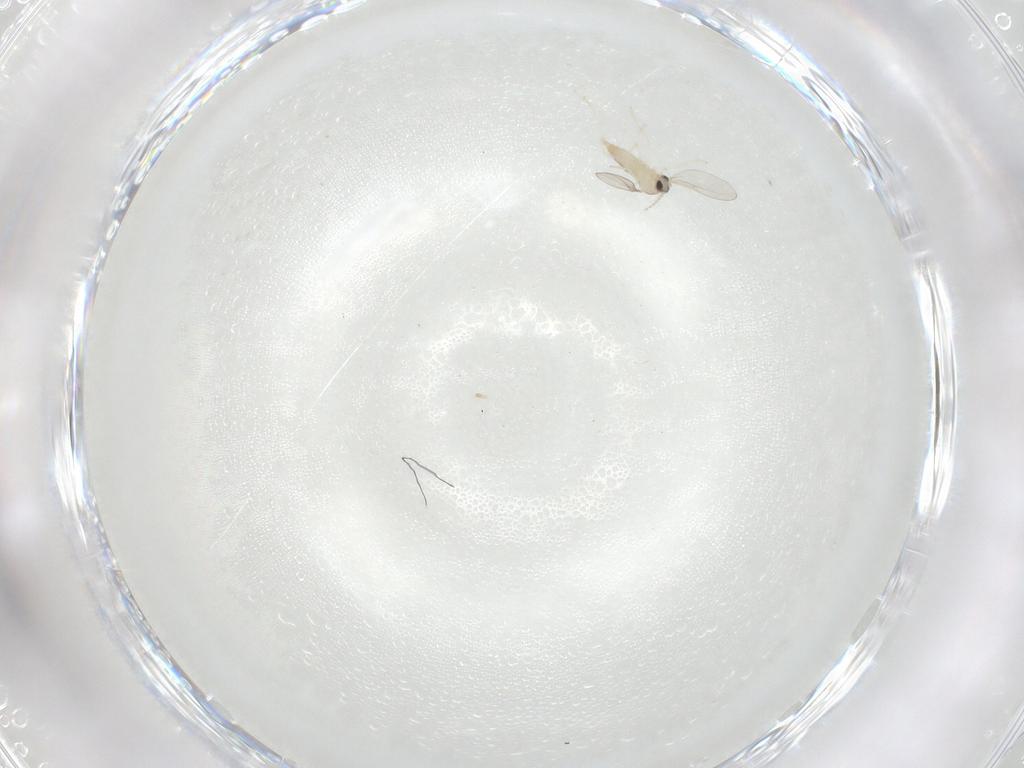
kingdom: Animalia
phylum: Arthropoda
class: Insecta
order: Diptera
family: Cecidomyiidae
